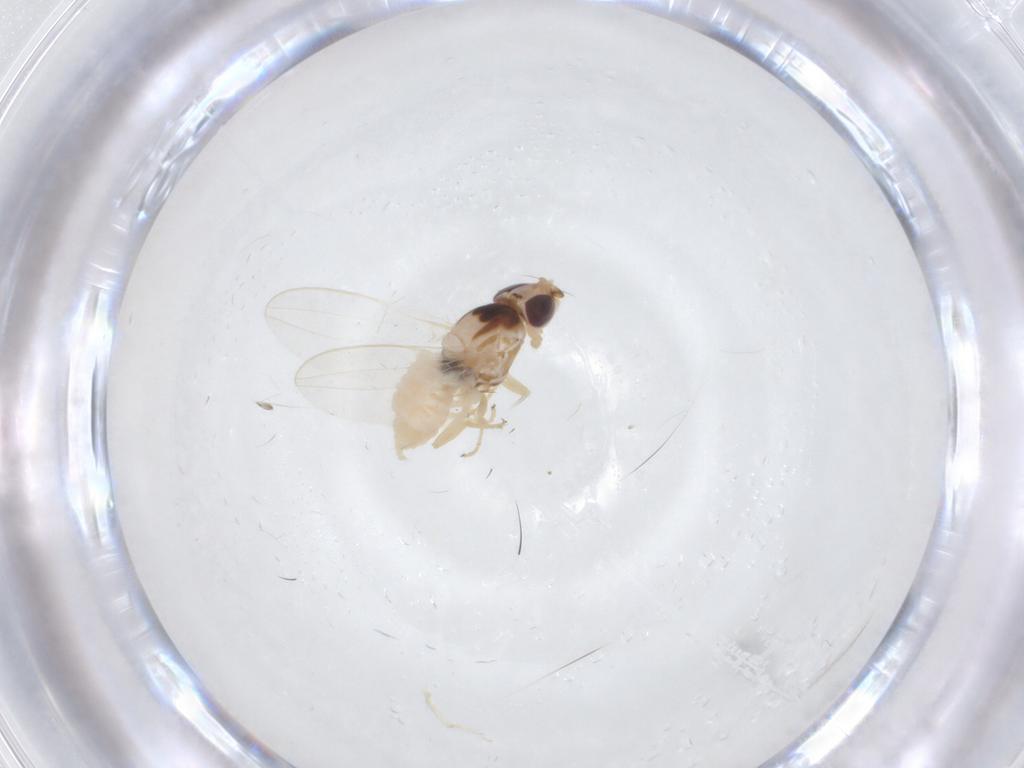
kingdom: Animalia
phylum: Arthropoda
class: Insecta
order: Diptera
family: Chloropidae
